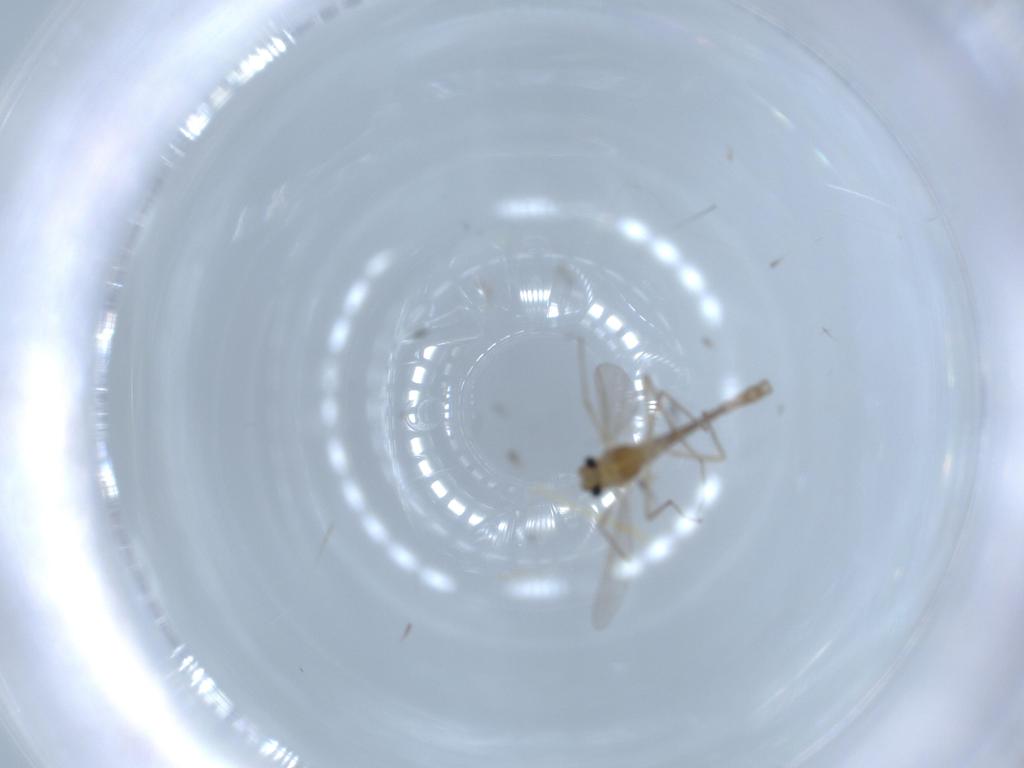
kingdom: Animalia
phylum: Arthropoda
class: Insecta
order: Diptera
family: Chironomidae
